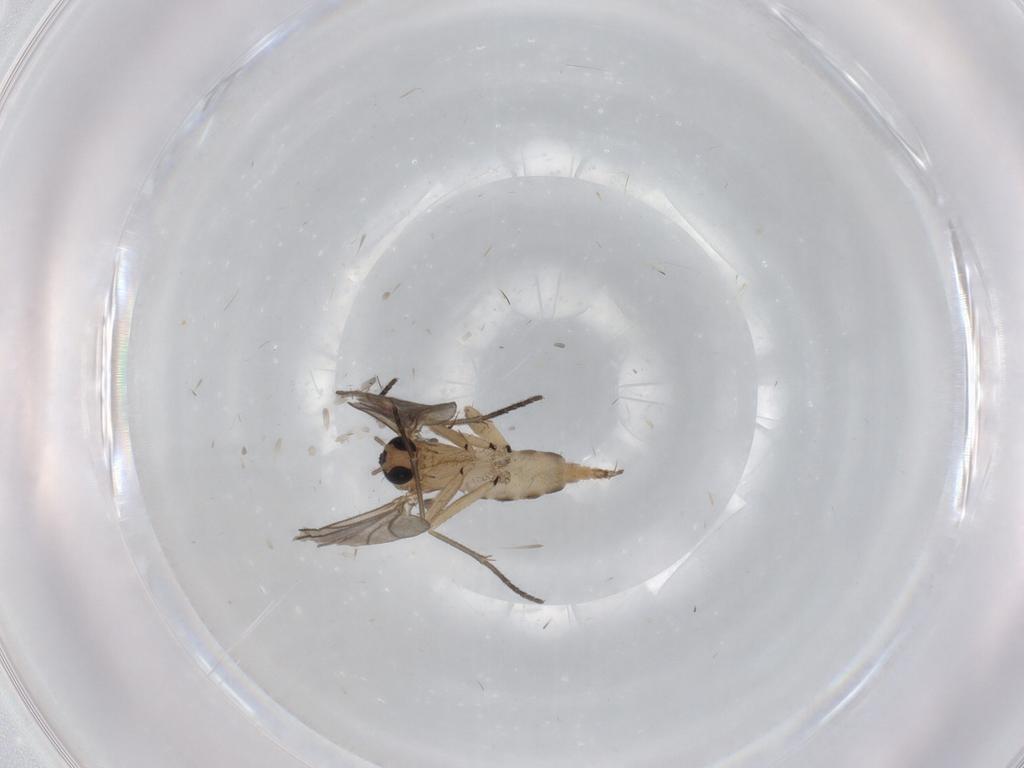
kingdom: Animalia
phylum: Arthropoda
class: Insecta
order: Diptera
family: Sciaridae
